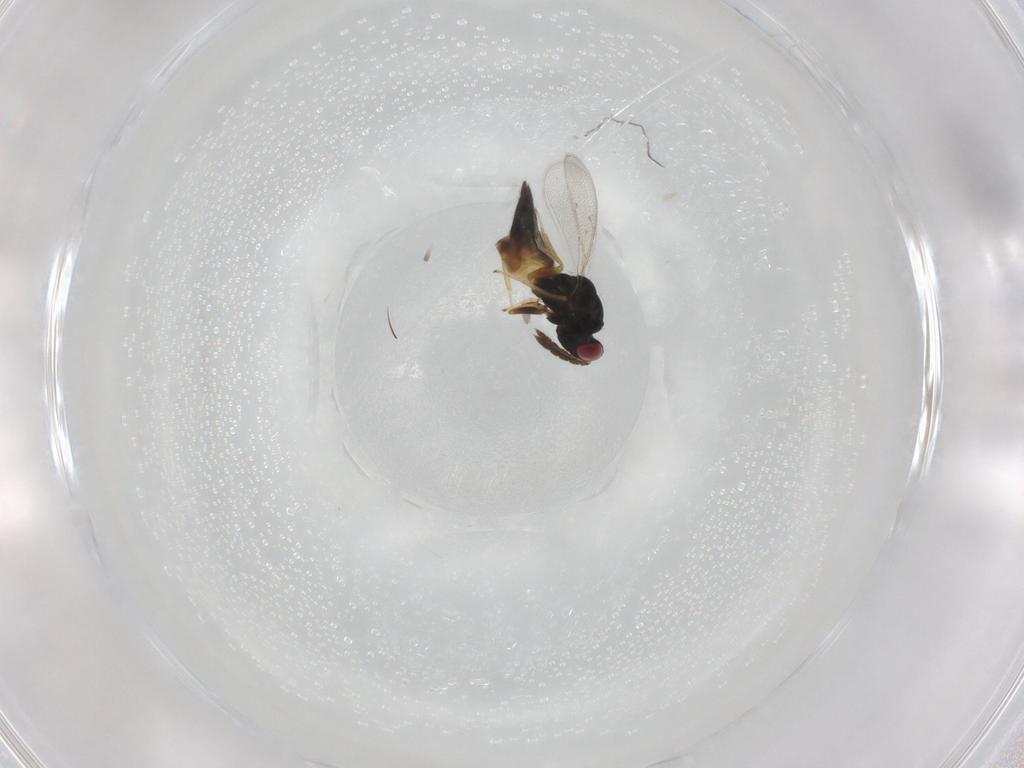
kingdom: Animalia
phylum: Arthropoda
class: Insecta
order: Hymenoptera
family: Eulophidae
